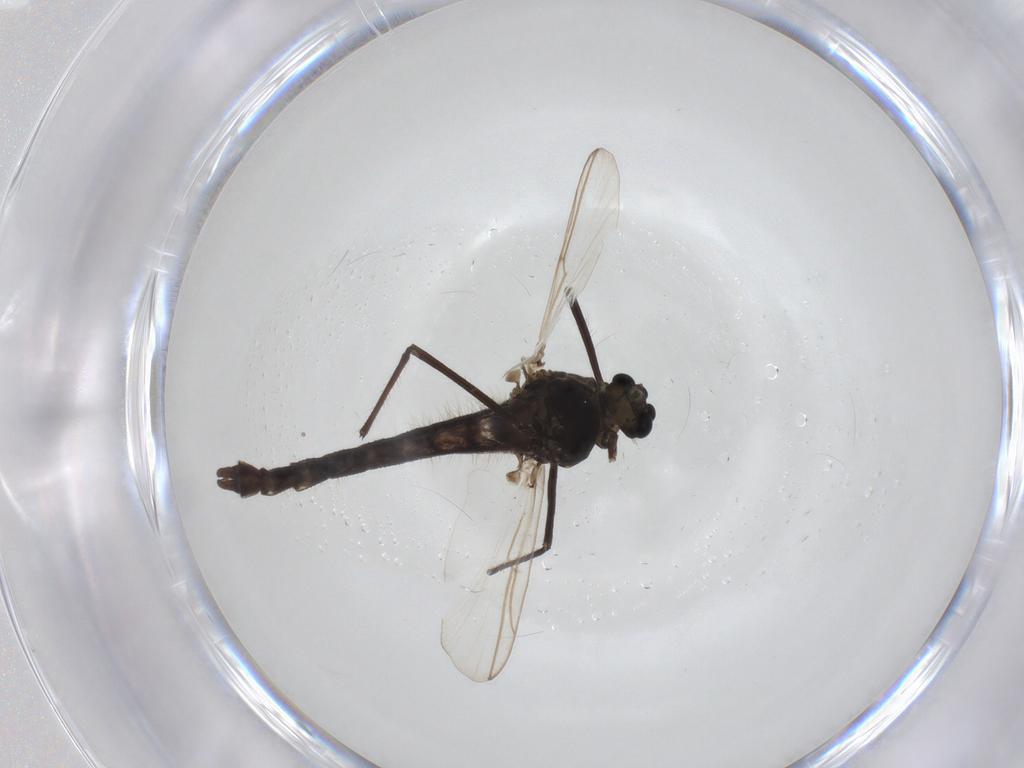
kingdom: Animalia
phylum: Arthropoda
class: Insecta
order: Diptera
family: Chironomidae
